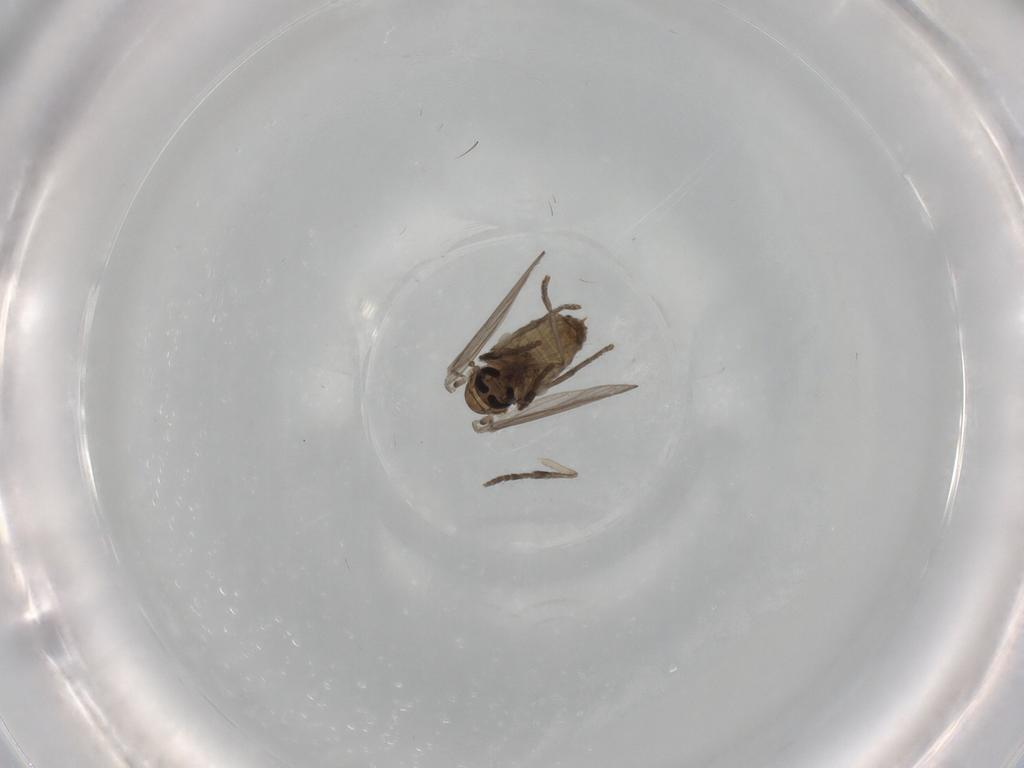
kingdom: Animalia
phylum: Arthropoda
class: Insecta
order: Diptera
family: Psychodidae
